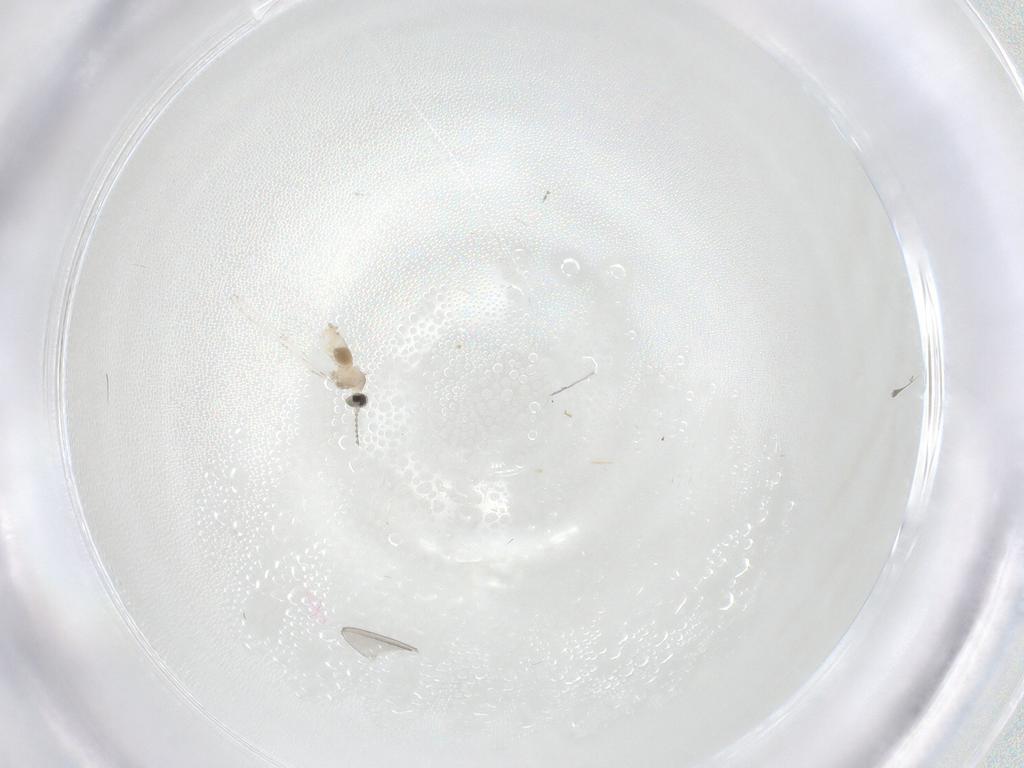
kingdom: Animalia
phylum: Arthropoda
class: Insecta
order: Diptera
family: Cecidomyiidae
